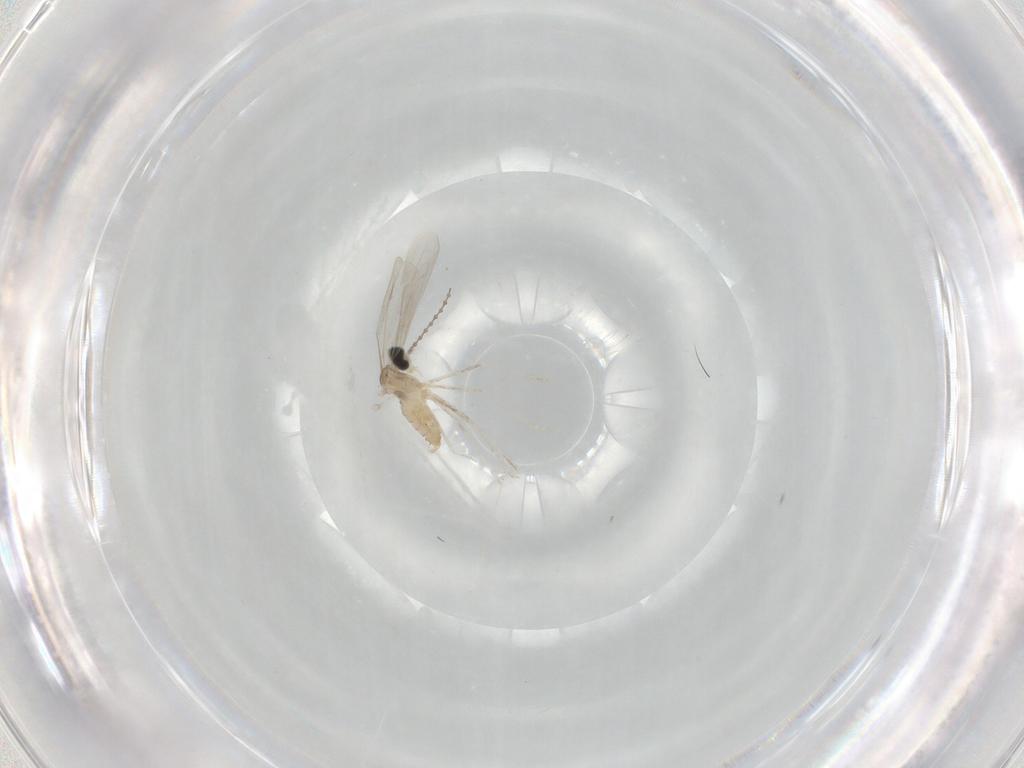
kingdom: Animalia
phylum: Arthropoda
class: Insecta
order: Diptera
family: Cecidomyiidae
